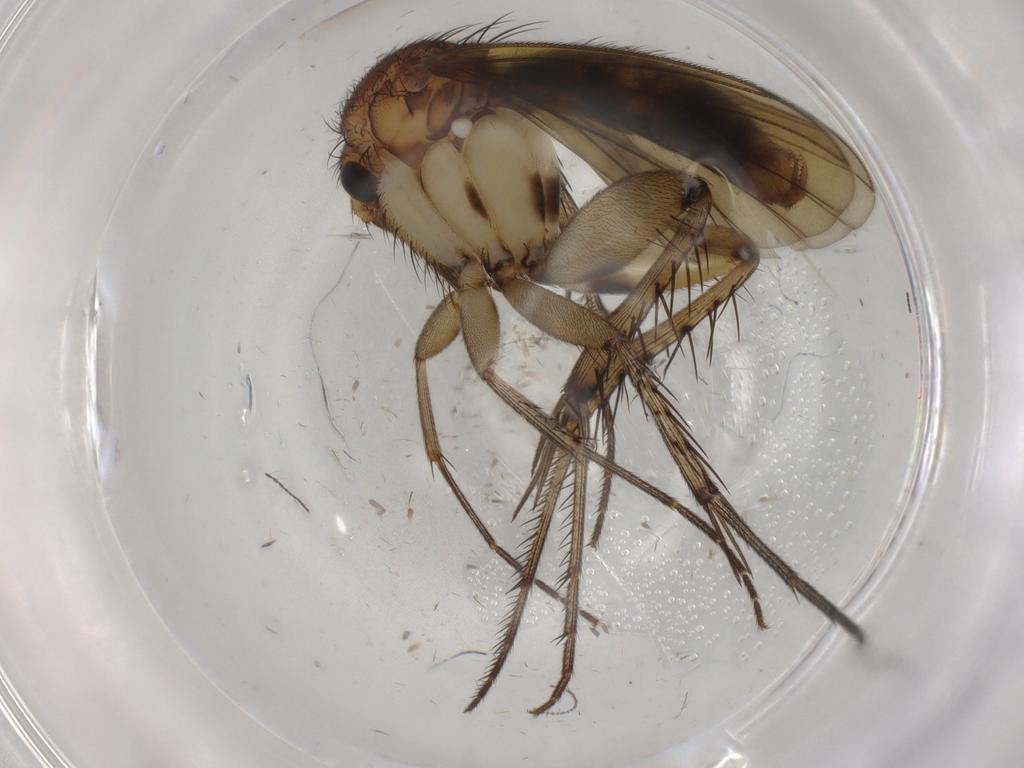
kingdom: Animalia
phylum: Arthropoda
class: Insecta
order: Diptera
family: Cecidomyiidae
